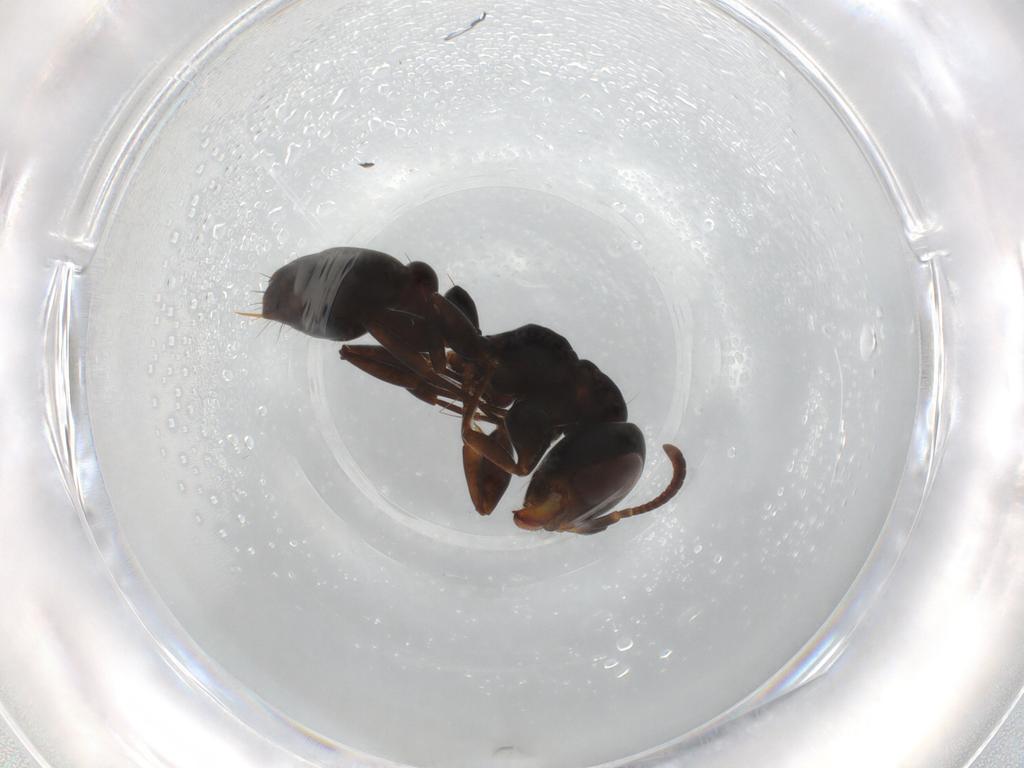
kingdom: Animalia
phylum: Arthropoda
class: Insecta
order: Hymenoptera
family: Formicidae
